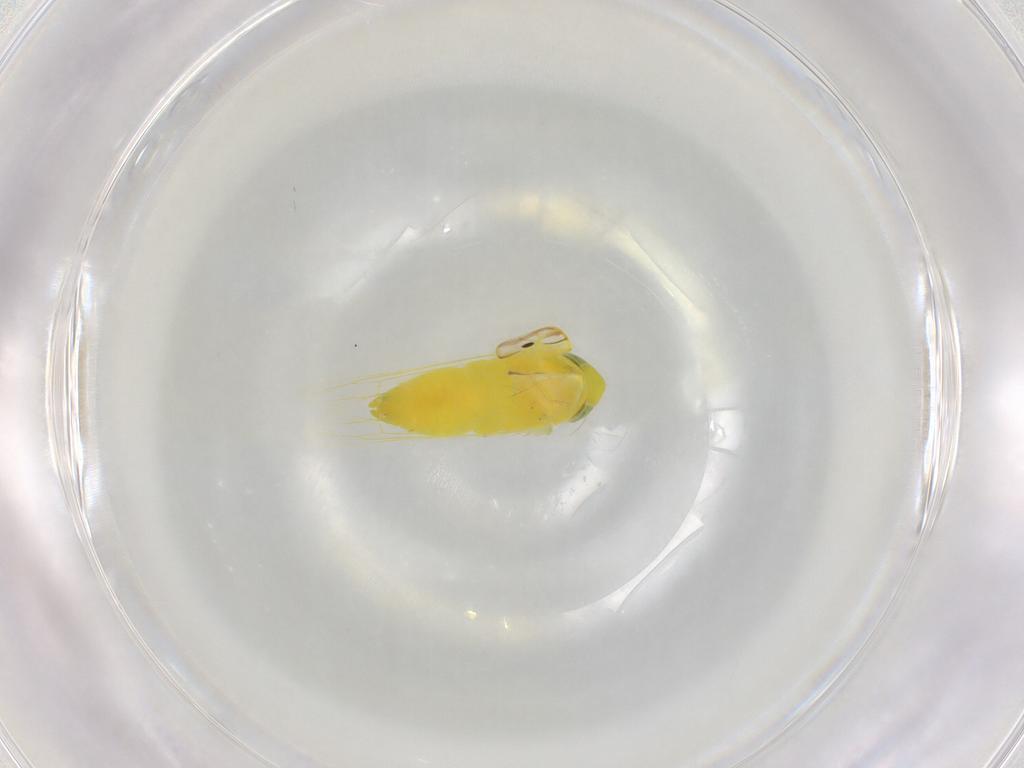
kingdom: Animalia
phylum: Arthropoda
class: Insecta
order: Hemiptera
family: Cicadellidae
